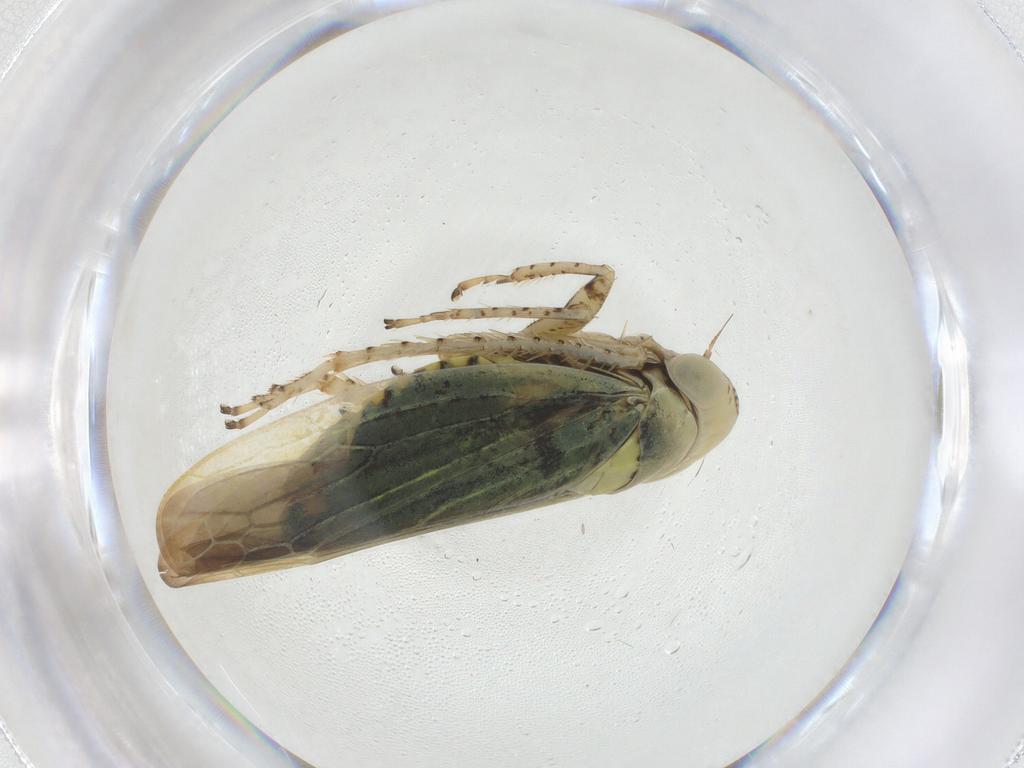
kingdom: Animalia
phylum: Arthropoda
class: Insecta
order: Hemiptera
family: Cicadellidae
